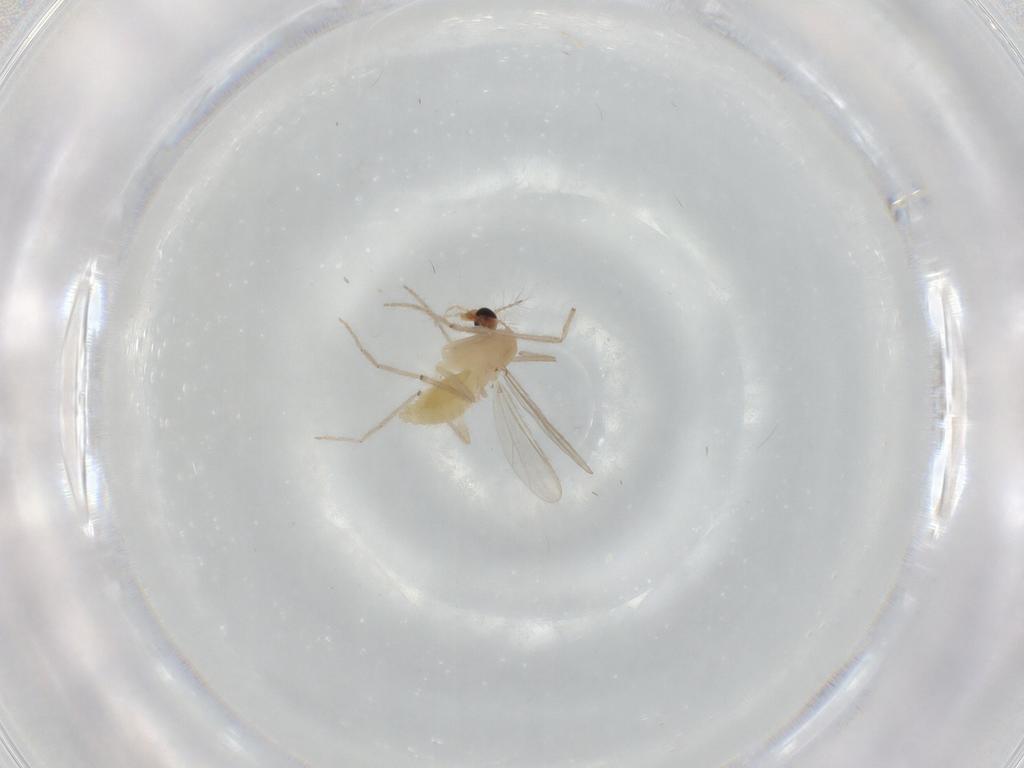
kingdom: Animalia
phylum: Arthropoda
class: Insecta
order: Diptera
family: Chironomidae
